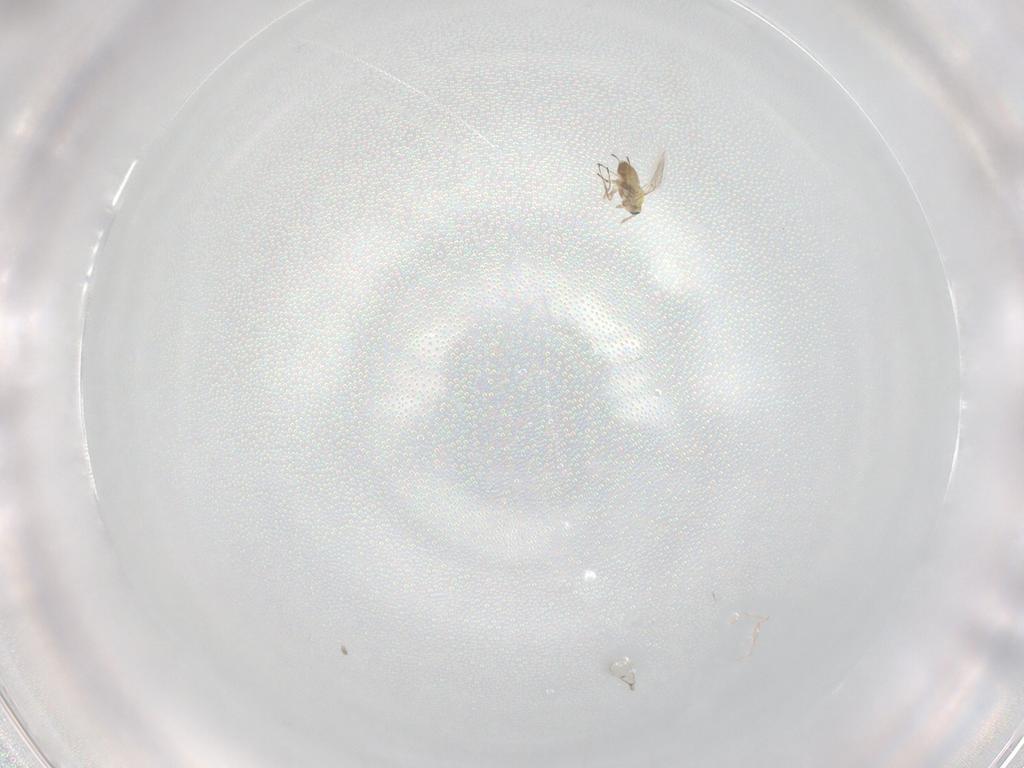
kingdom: Animalia
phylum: Arthropoda
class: Insecta
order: Hymenoptera
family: Trichogrammatidae
